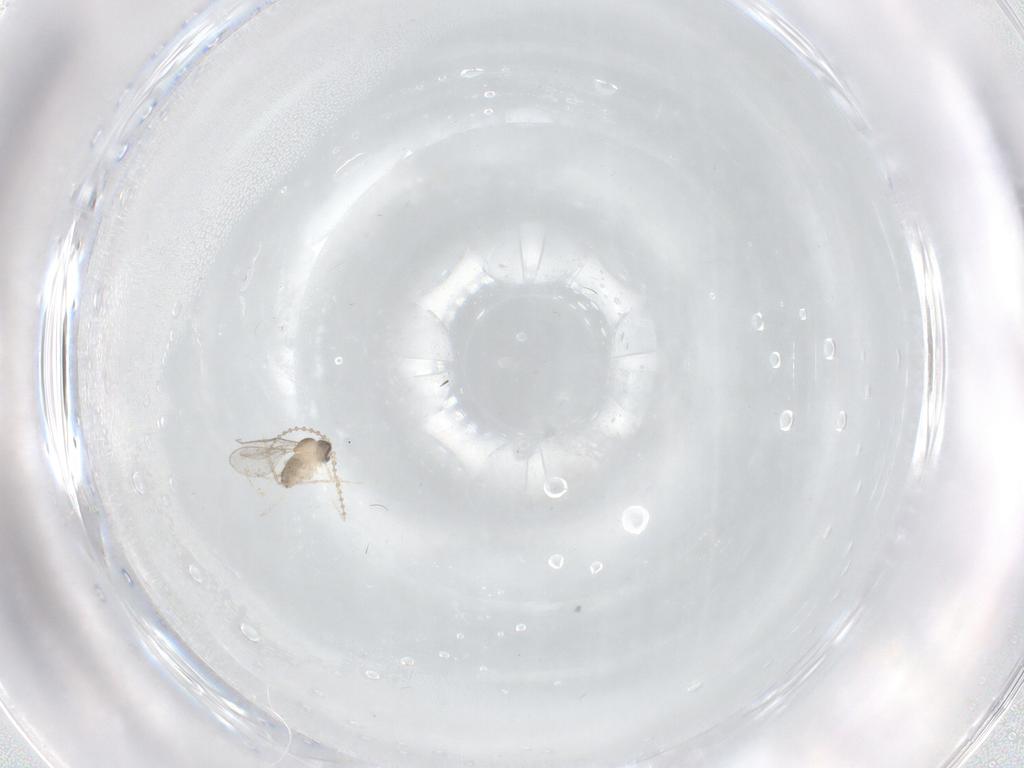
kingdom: Animalia
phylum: Arthropoda
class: Insecta
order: Diptera
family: Cecidomyiidae
